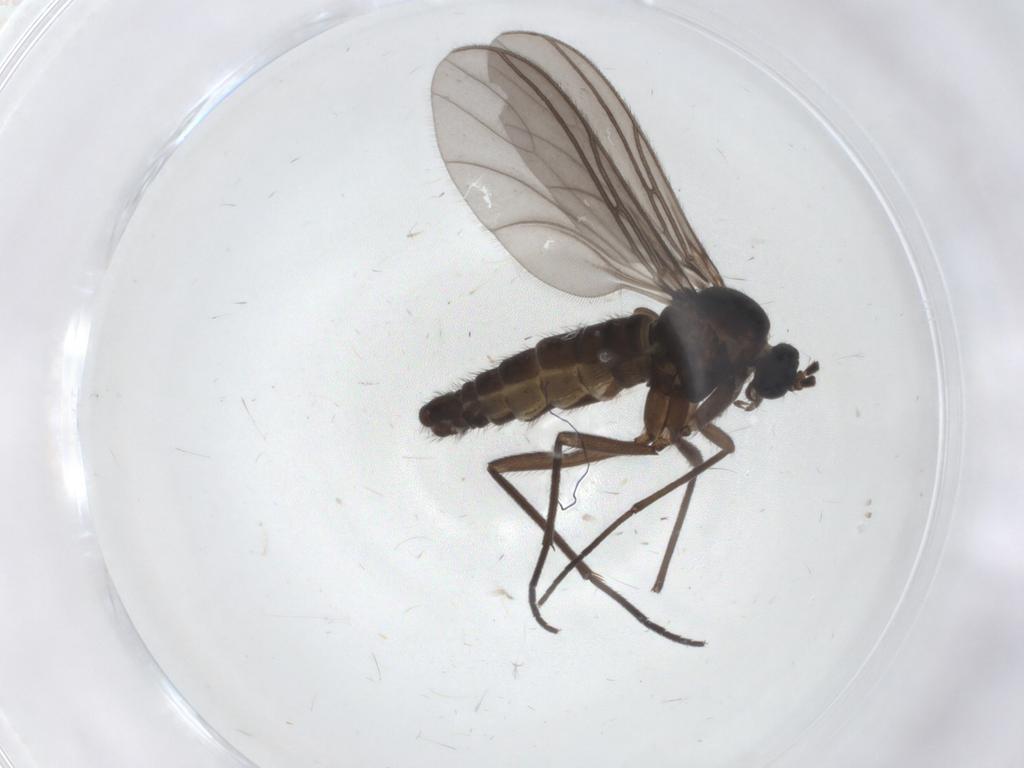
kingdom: Animalia
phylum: Arthropoda
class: Insecta
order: Diptera
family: Sciaridae
